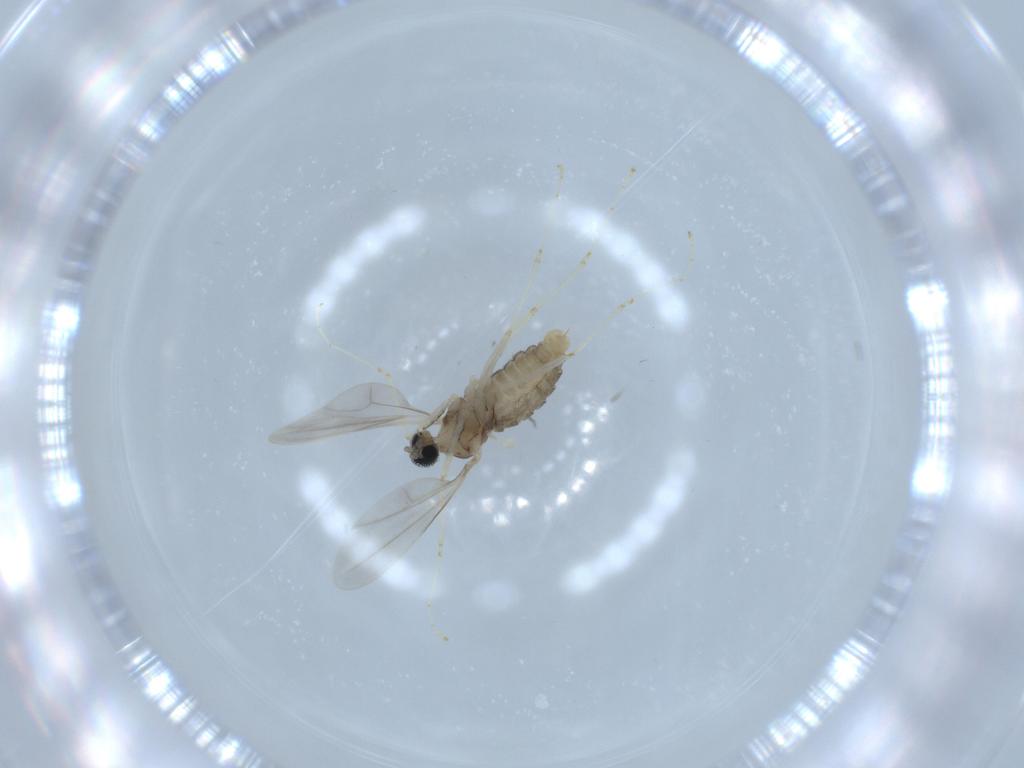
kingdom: Animalia
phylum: Arthropoda
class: Insecta
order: Diptera
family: Cecidomyiidae
